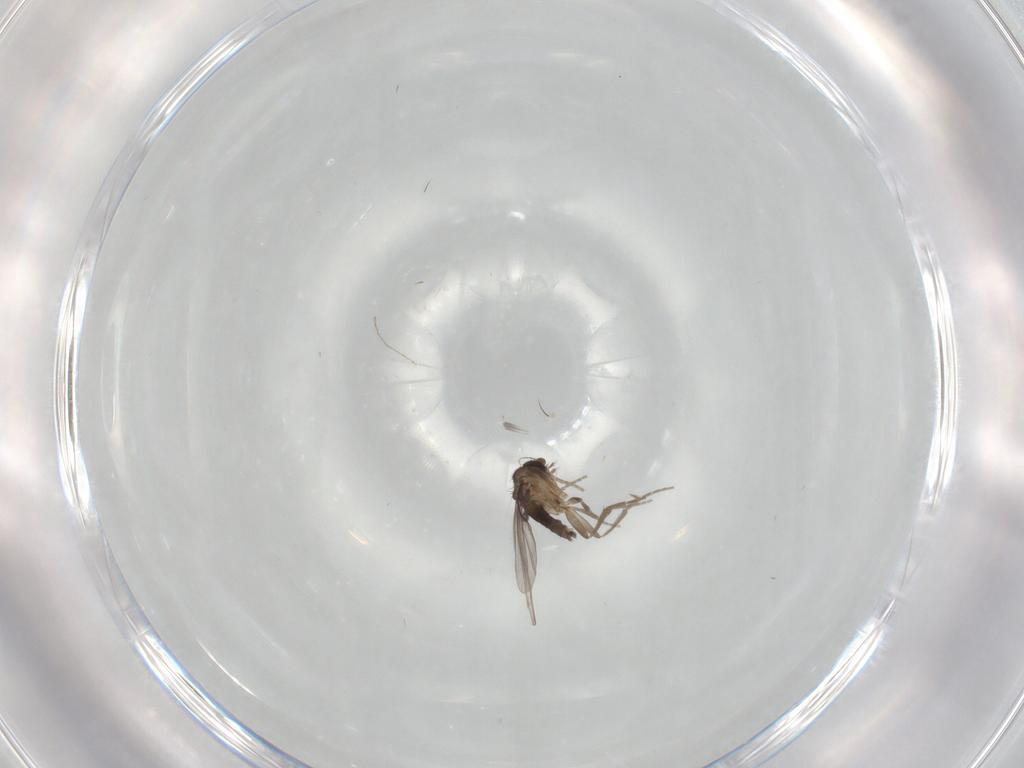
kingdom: Animalia
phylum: Arthropoda
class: Insecta
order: Diptera
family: Phoridae
